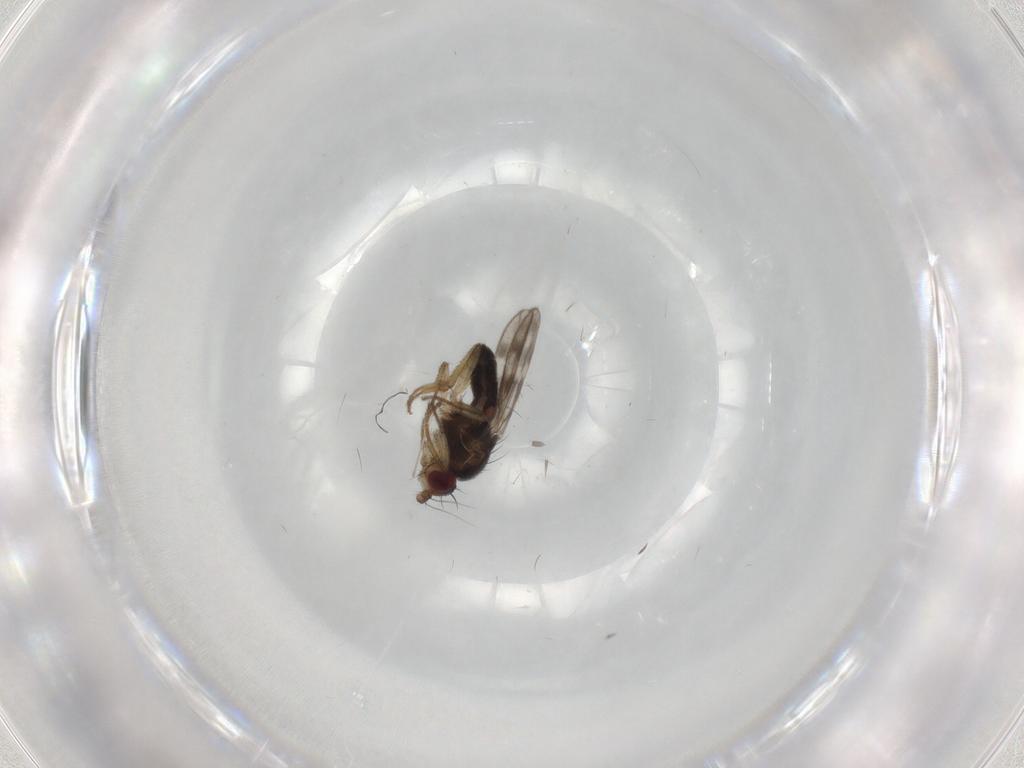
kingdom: Animalia
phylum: Arthropoda
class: Insecta
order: Diptera
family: Sphaeroceridae
